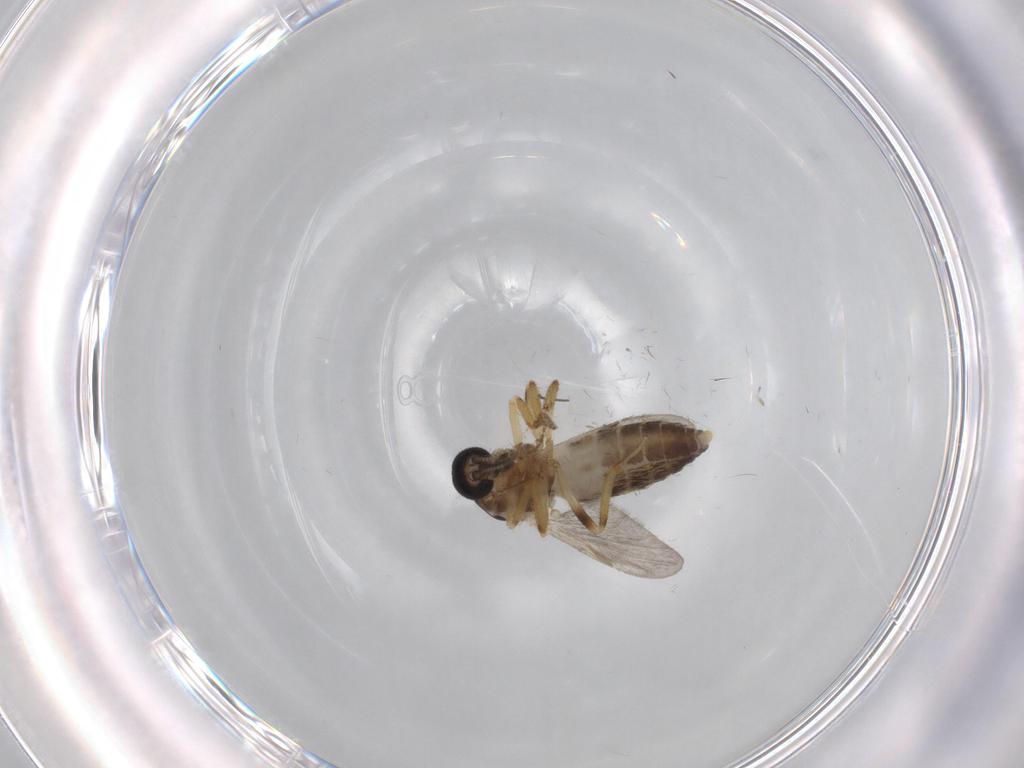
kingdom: Animalia
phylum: Arthropoda
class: Insecta
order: Diptera
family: Ceratopogonidae
